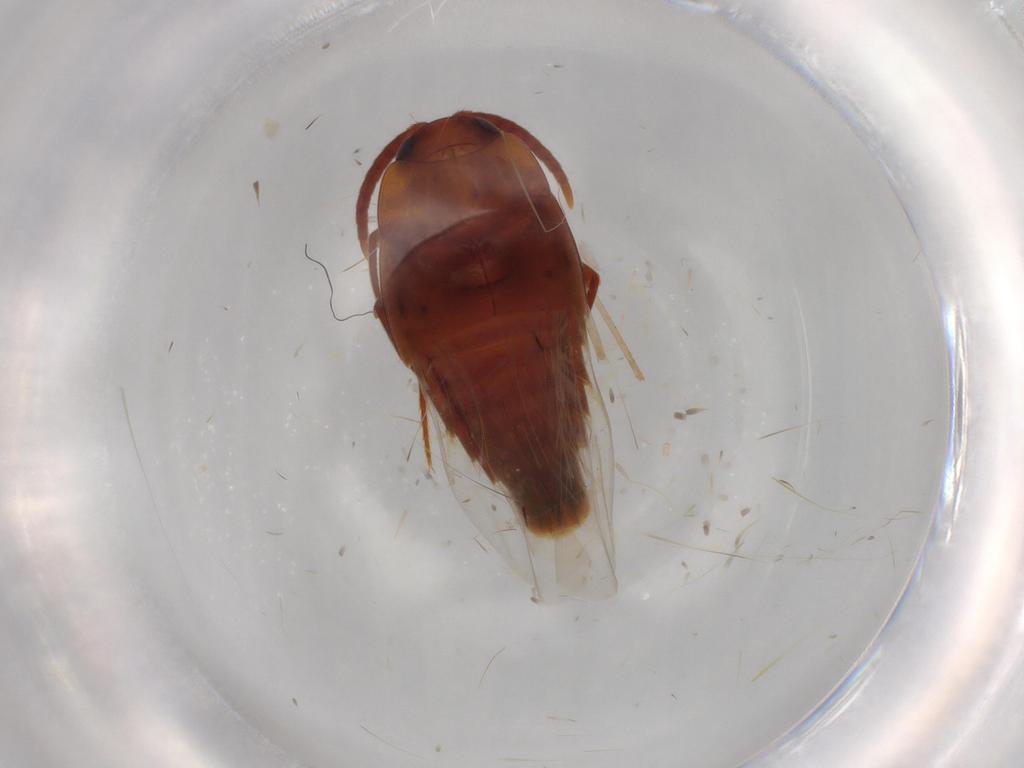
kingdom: Animalia
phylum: Arthropoda
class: Insecta
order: Coleoptera
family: Staphylinidae
